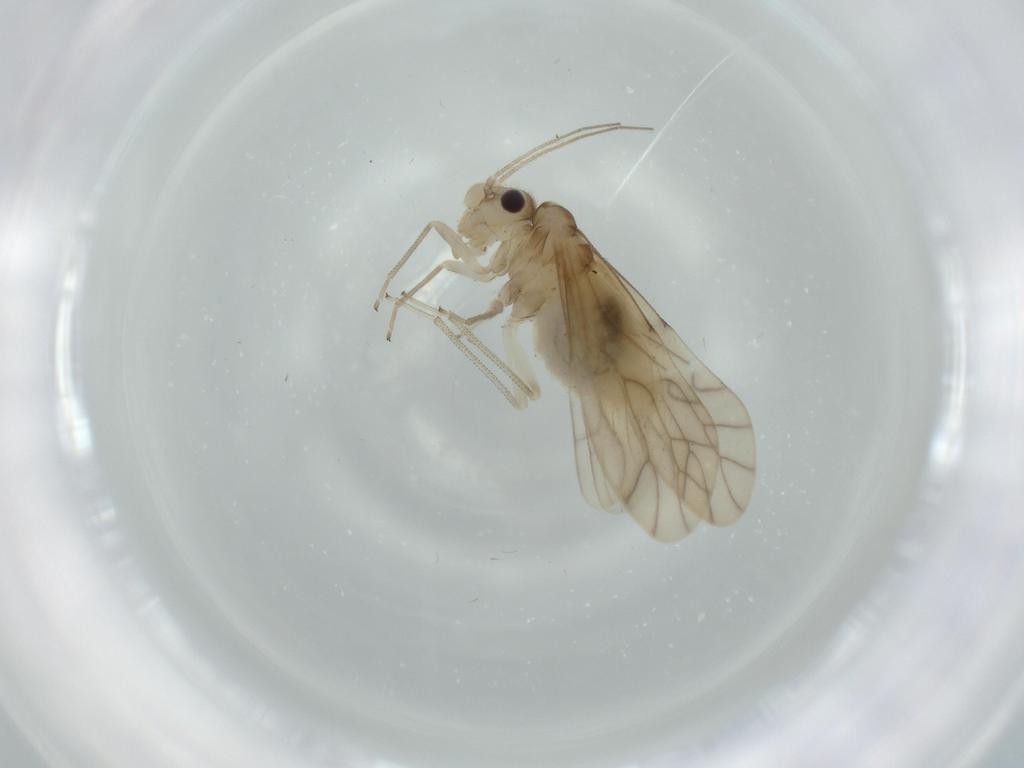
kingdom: Animalia
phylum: Arthropoda
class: Insecta
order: Psocodea
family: Caeciliusidae
